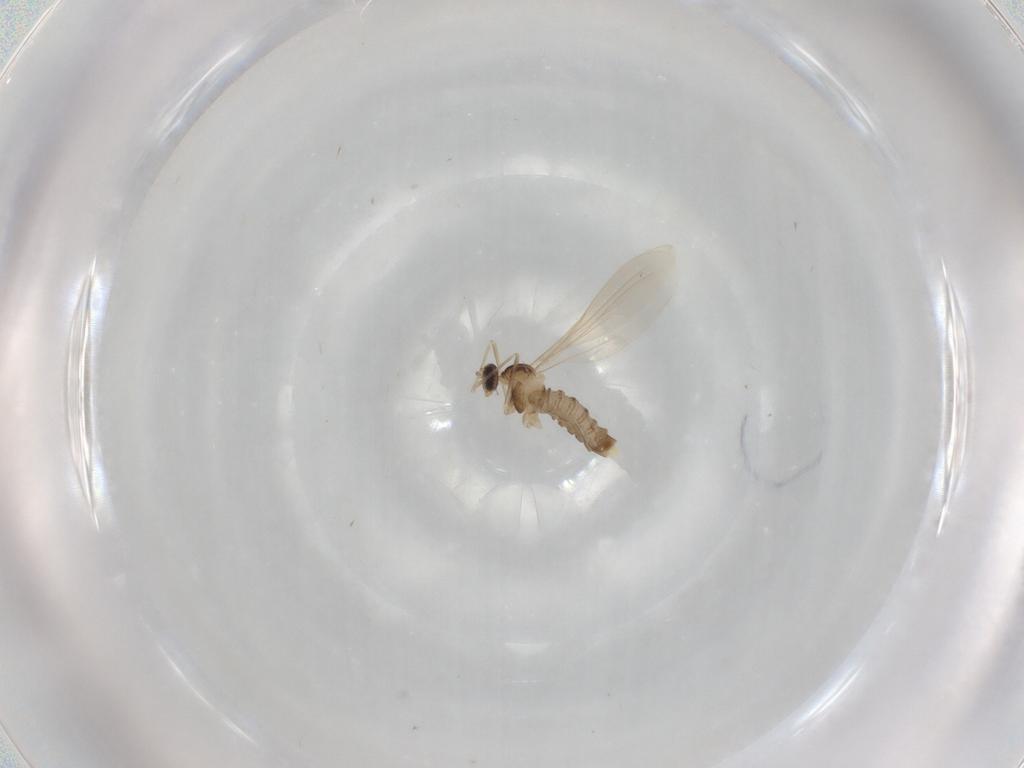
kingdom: Animalia
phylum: Arthropoda
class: Insecta
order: Diptera
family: Cecidomyiidae
